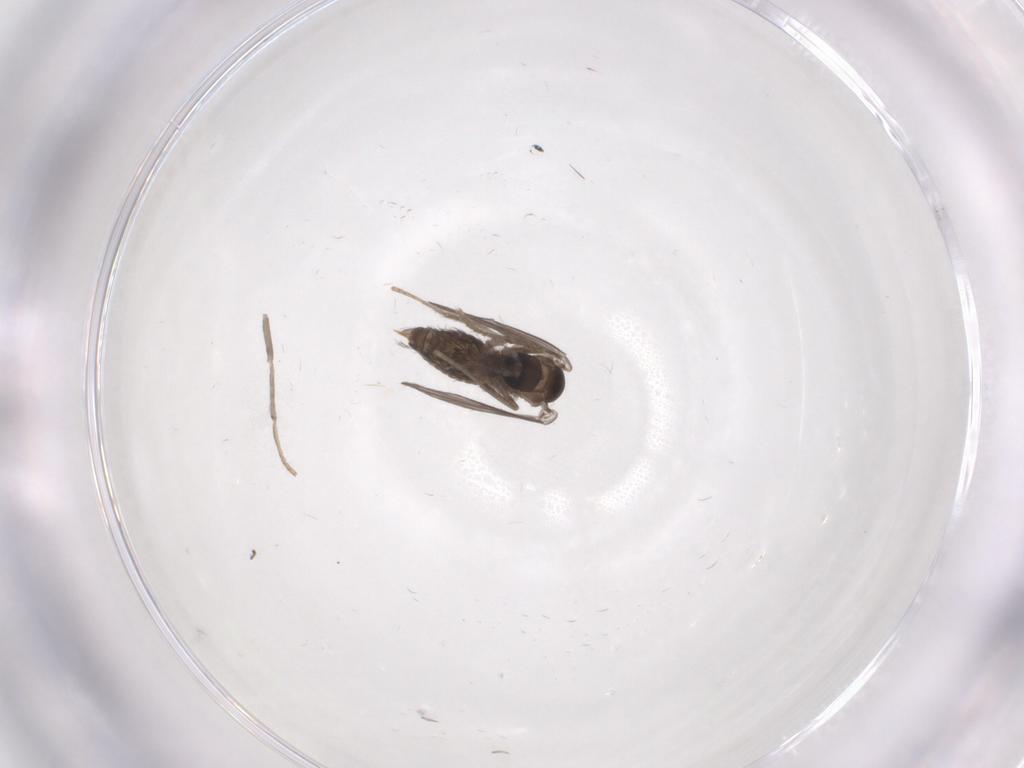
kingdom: Animalia
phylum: Arthropoda
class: Insecta
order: Diptera
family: Psychodidae
